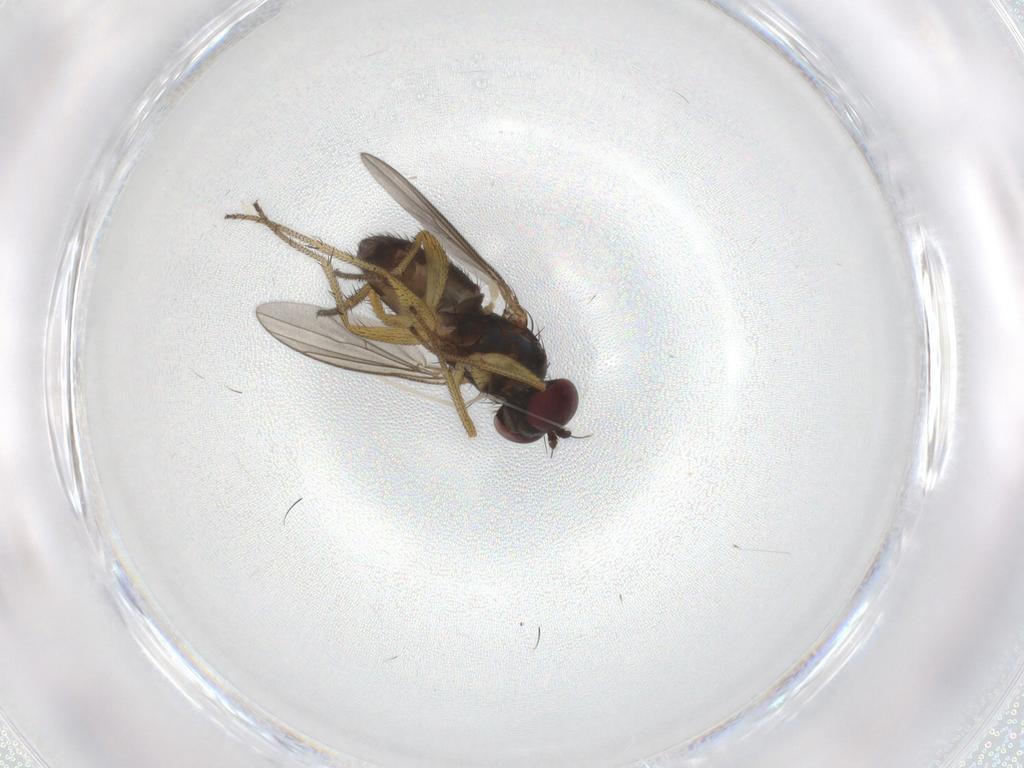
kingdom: Animalia
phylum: Arthropoda
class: Insecta
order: Diptera
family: Dolichopodidae
